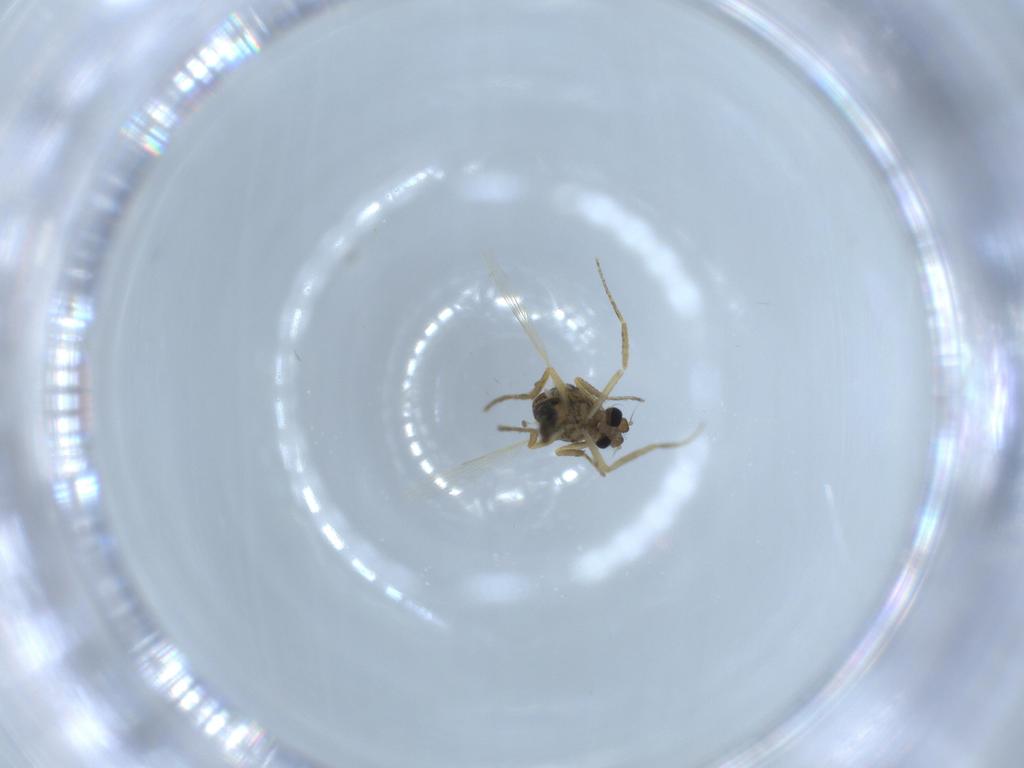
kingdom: Animalia
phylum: Arthropoda
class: Insecta
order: Diptera
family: Ceratopogonidae
